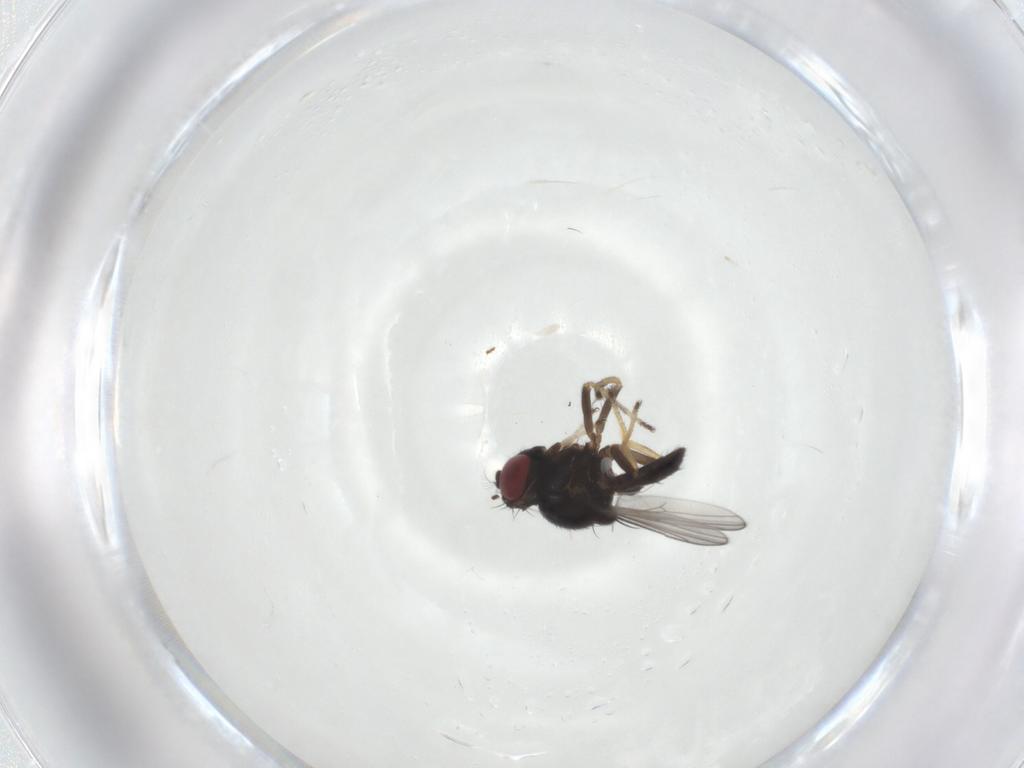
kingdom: Animalia
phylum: Arthropoda
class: Insecta
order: Diptera
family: Ephydridae
